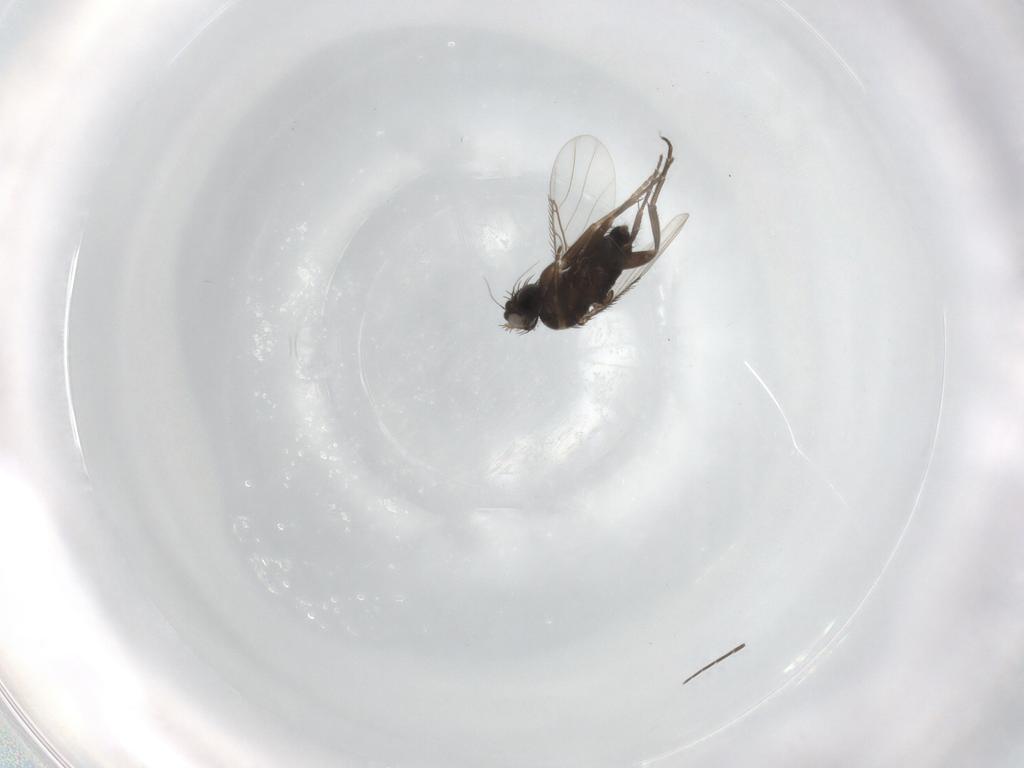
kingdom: Animalia
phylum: Arthropoda
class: Insecta
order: Diptera
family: Phoridae
